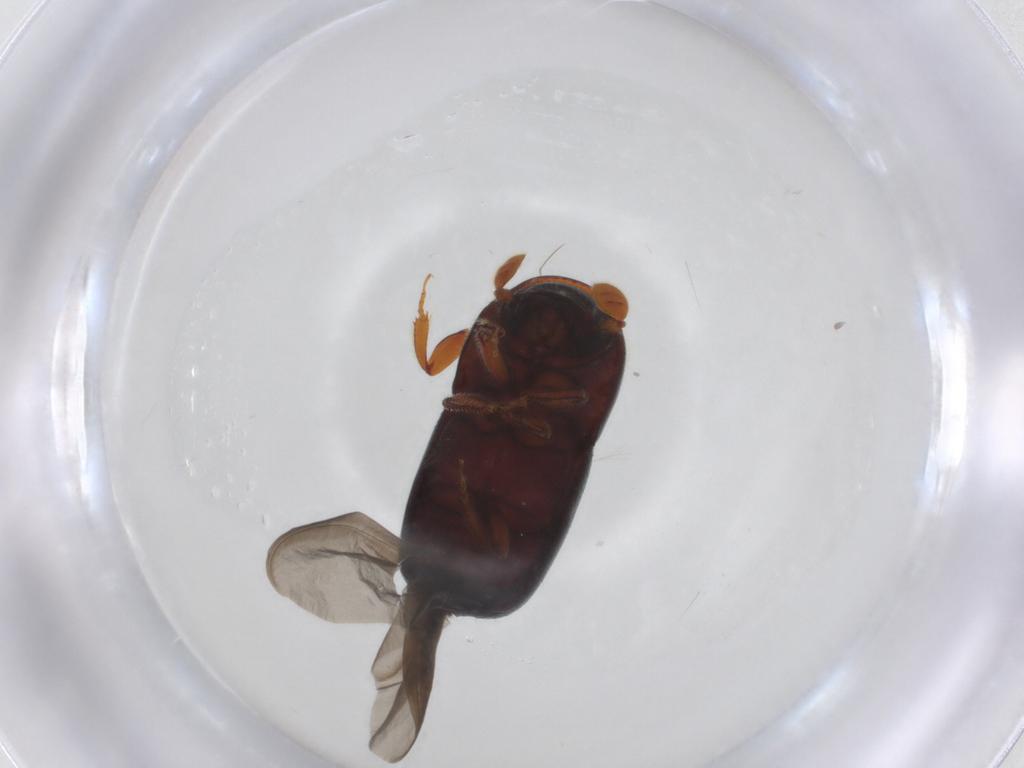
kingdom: Animalia
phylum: Arthropoda
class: Insecta
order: Coleoptera
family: Curculionidae
